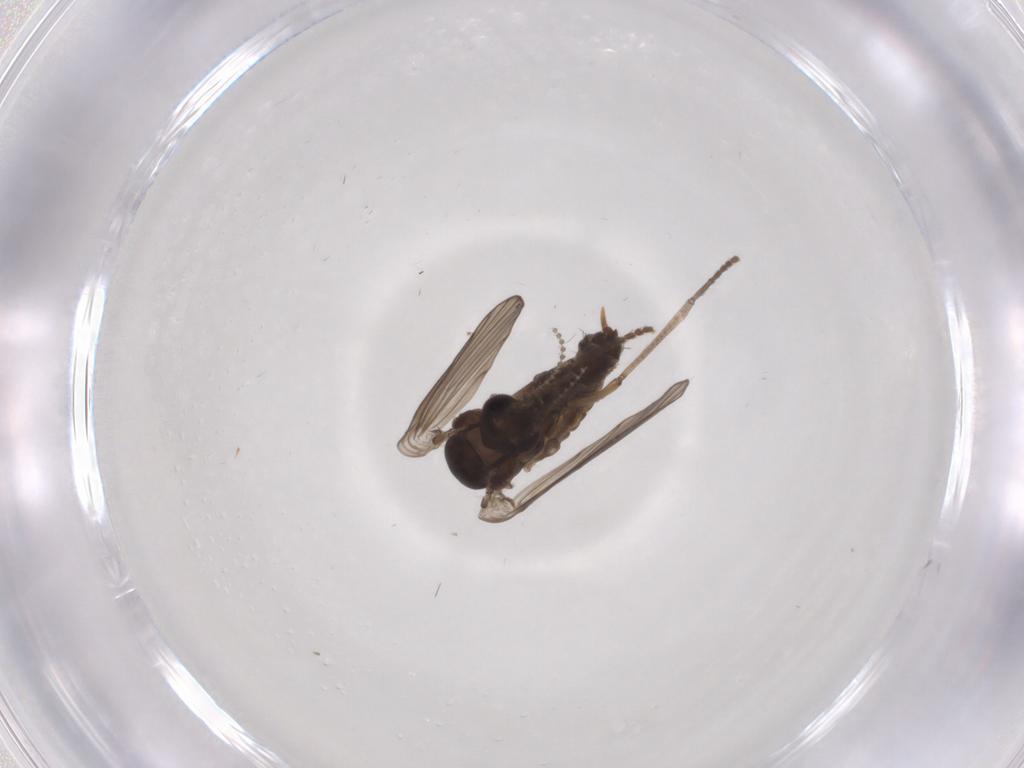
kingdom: Animalia
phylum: Arthropoda
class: Insecta
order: Diptera
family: Psychodidae
